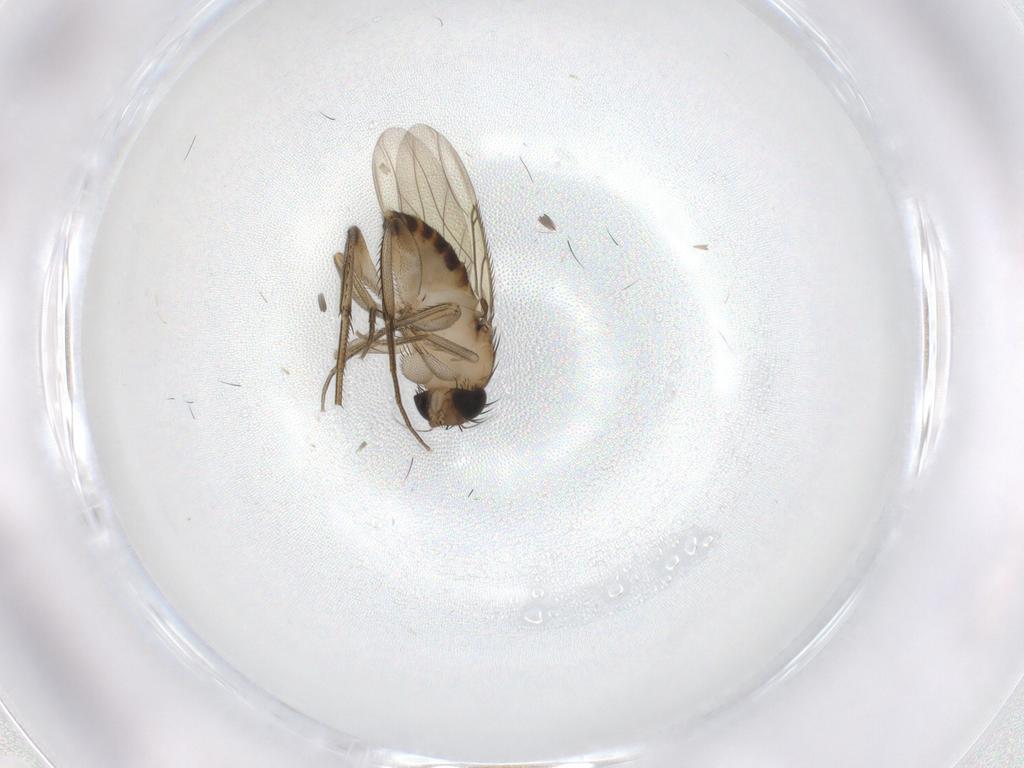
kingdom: Animalia
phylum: Arthropoda
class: Insecta
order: Diptera
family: Phoridae
